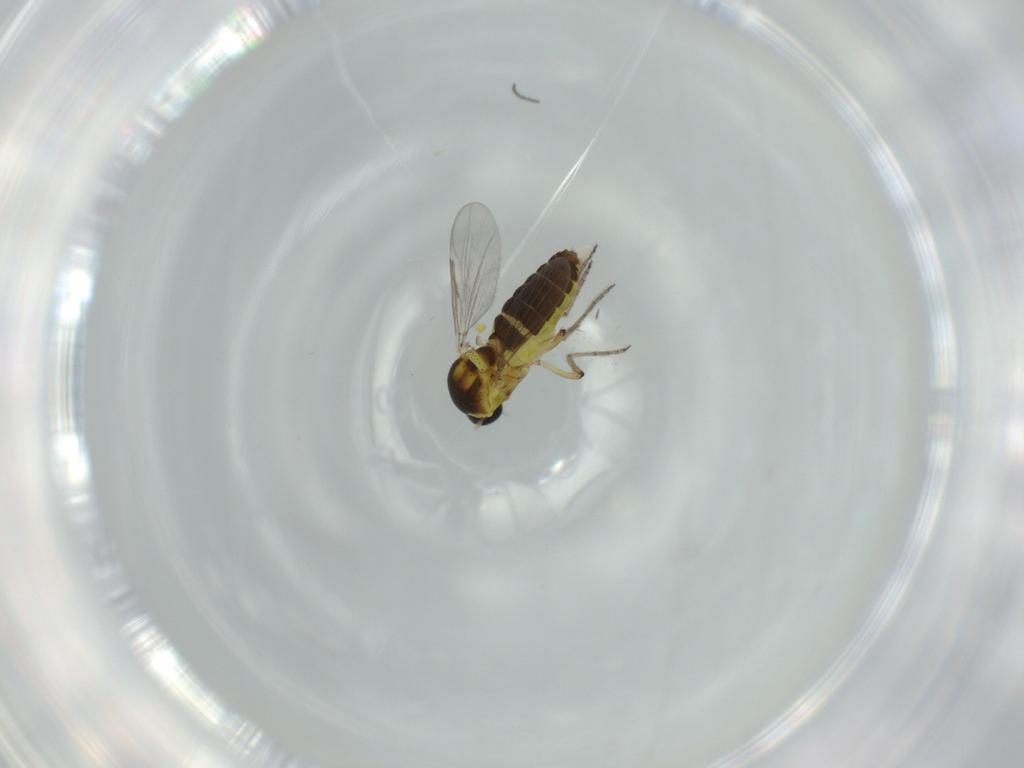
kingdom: Animalia
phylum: Arthropoda
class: Insecta
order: Diptera
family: Ceratopogonidae
